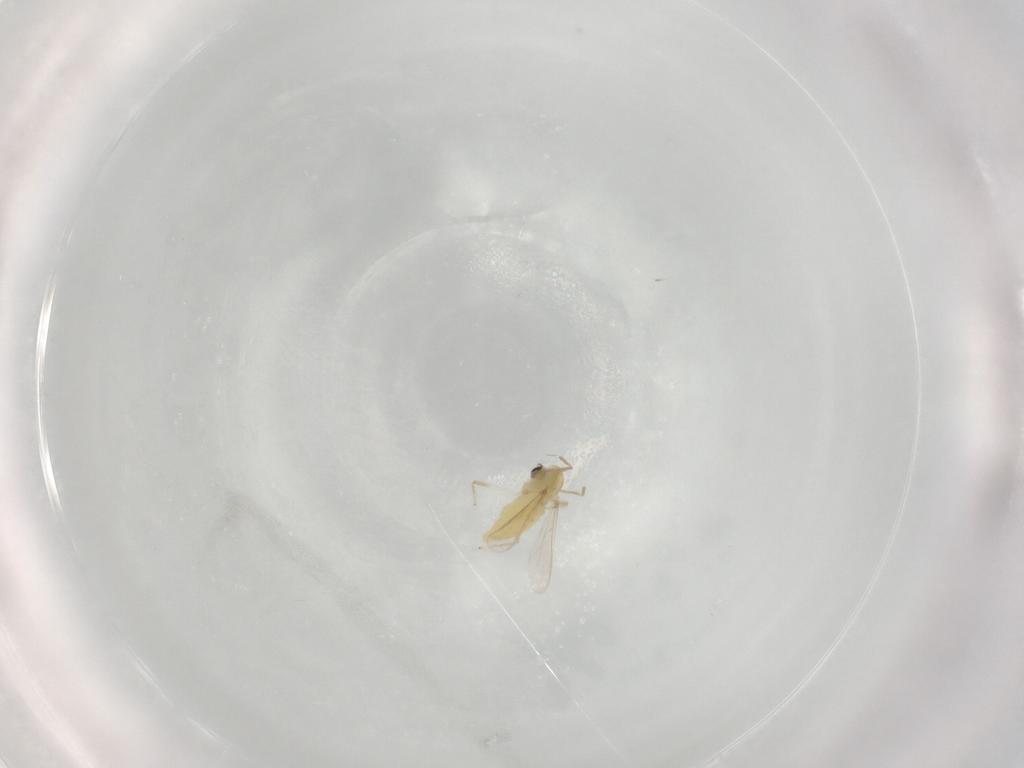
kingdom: Animalia
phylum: Arthropoda
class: Insecta
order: Diptera
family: Chironomidae
